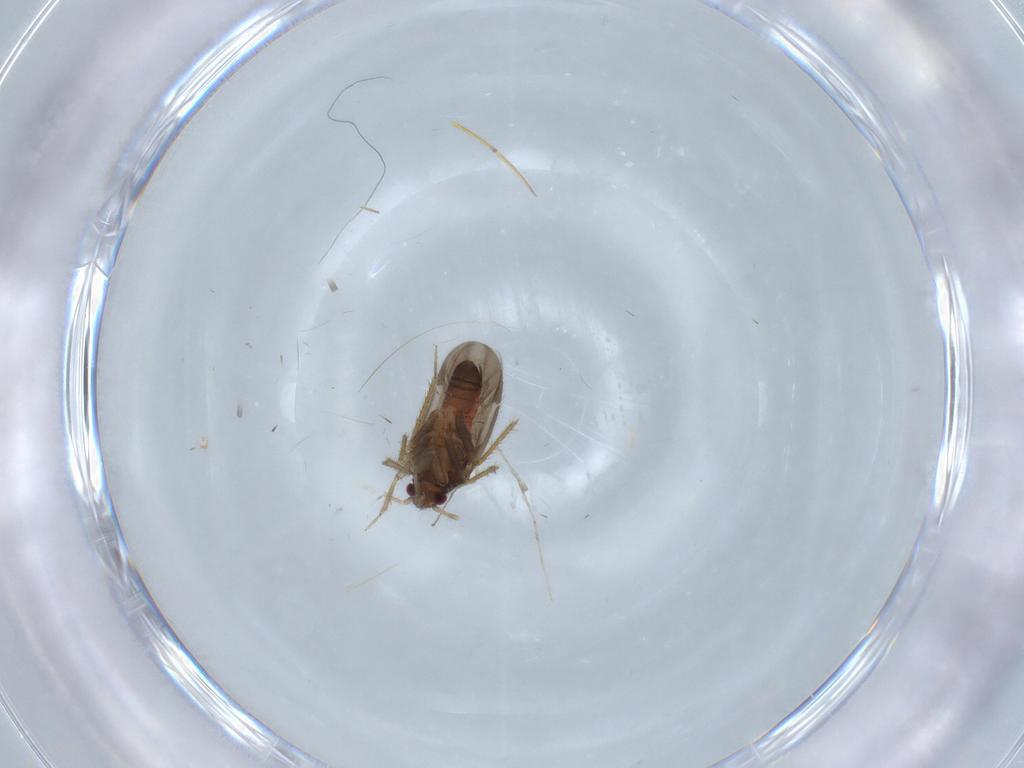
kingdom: Animalia
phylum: Arthropoda
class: Insecta
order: Hemiptera
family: Ceratocombidae
